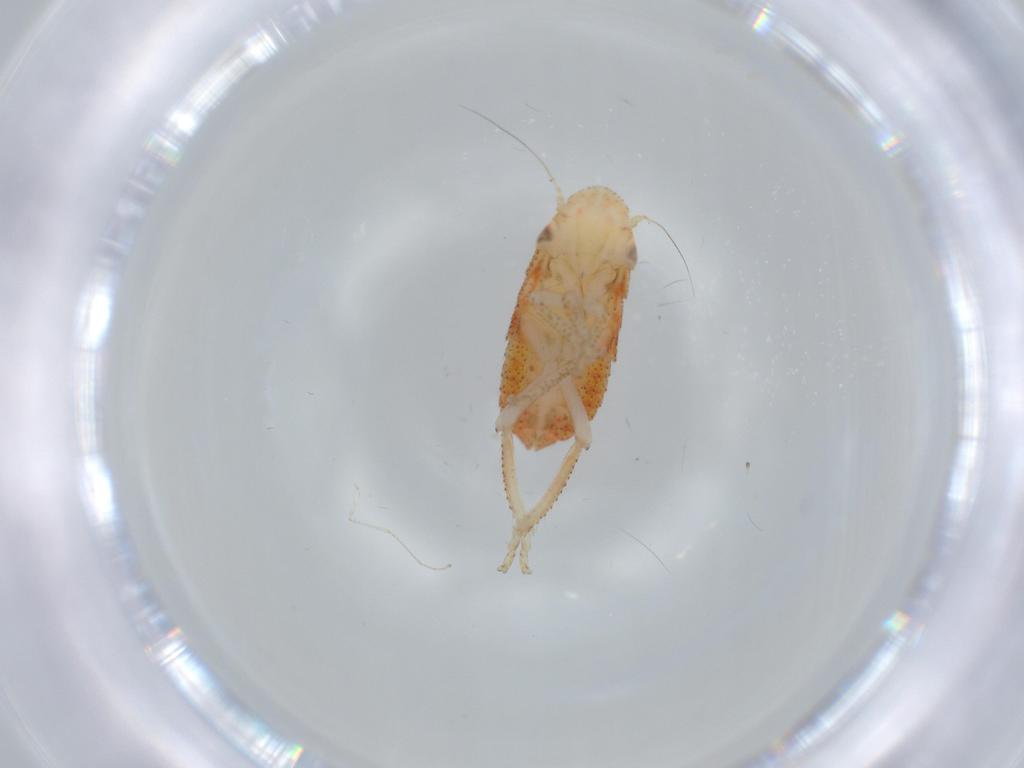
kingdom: Animalia
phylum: Arthropoda
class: Insecta
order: Hemiptera
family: Cicadellidae
